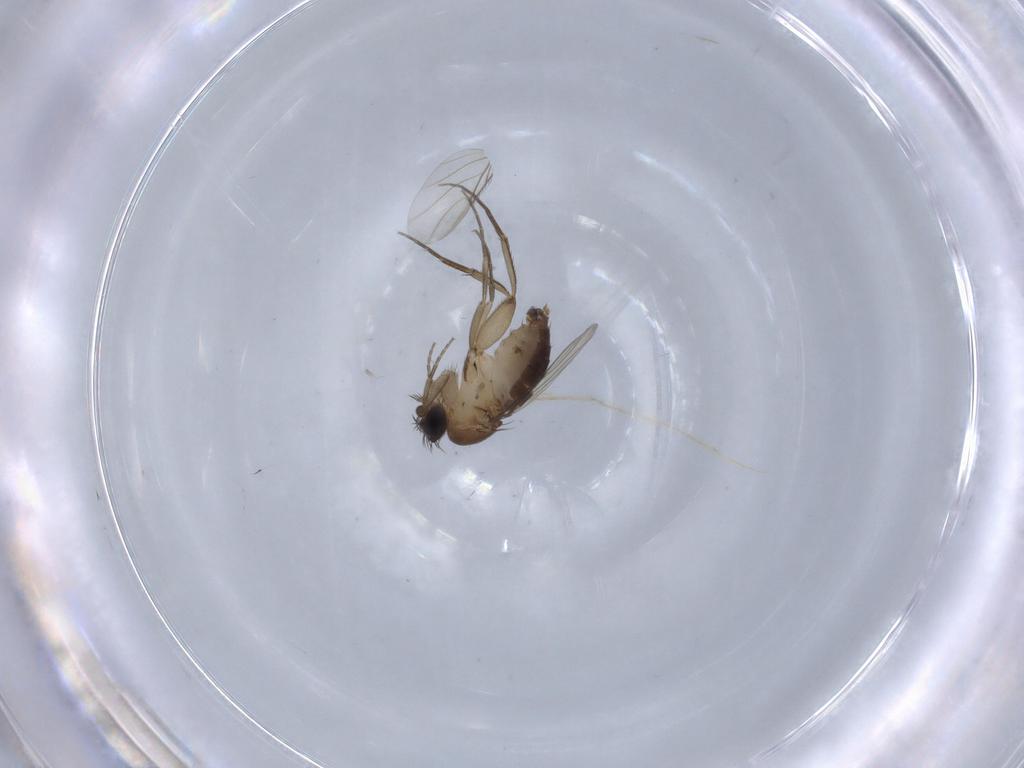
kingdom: Animalia
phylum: Arthropoda
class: Insecta
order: Diptera
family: Phoridae
